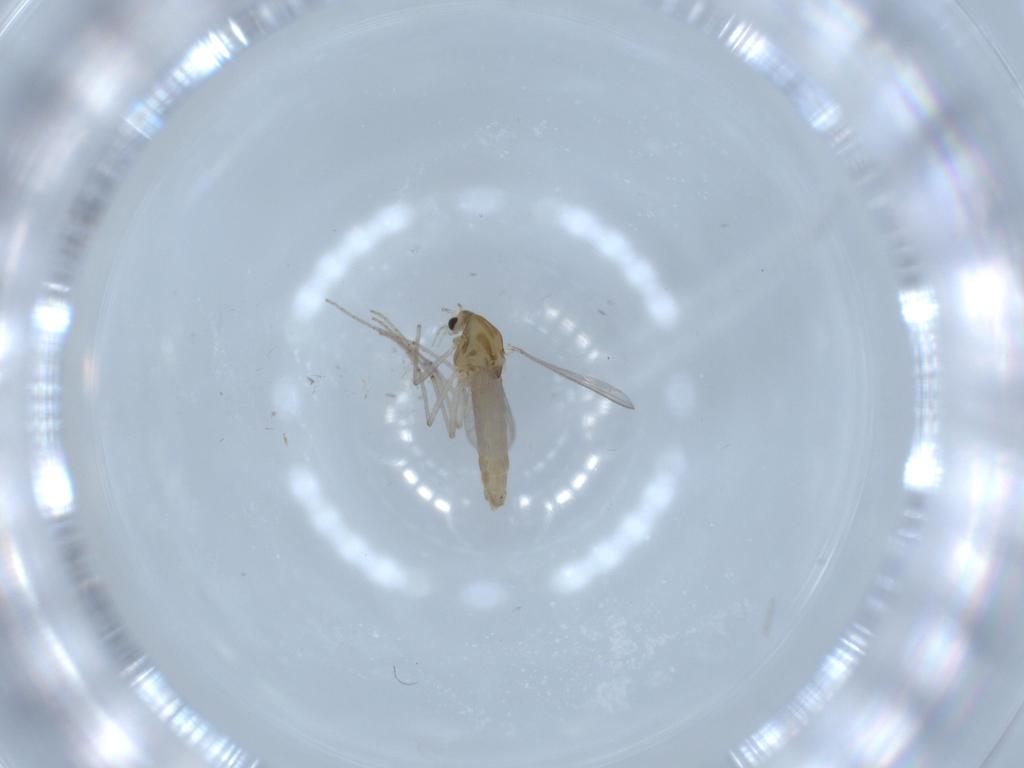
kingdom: Animalia
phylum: Arthropoda
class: Insecta
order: Diptera
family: Chironomidae
